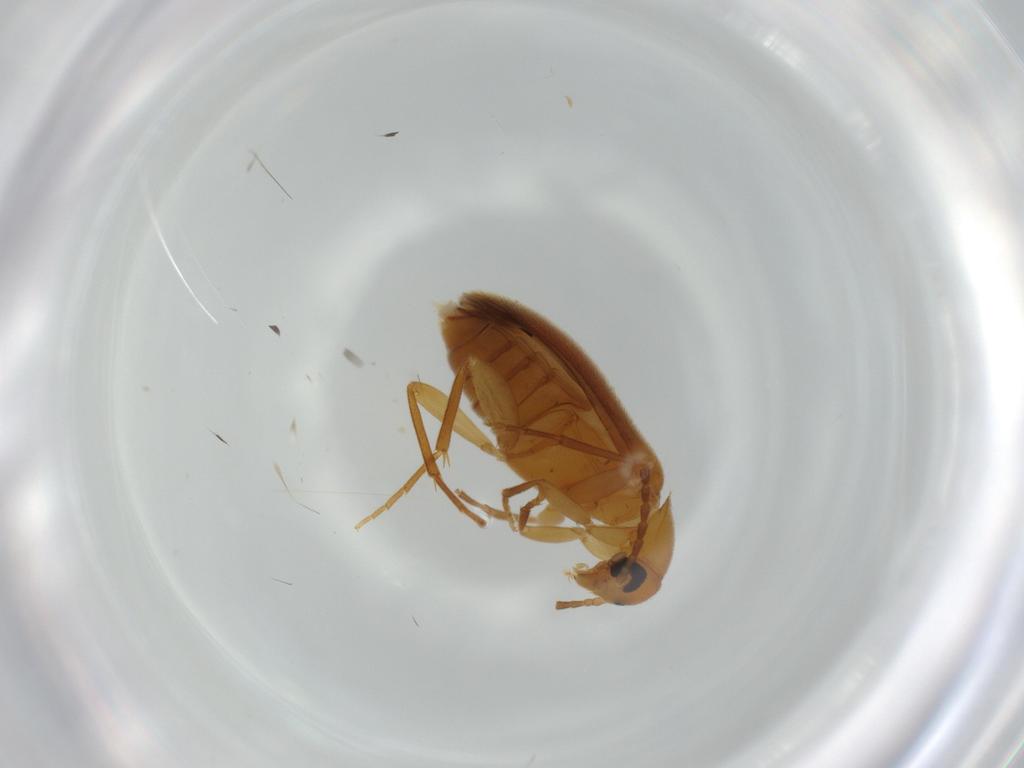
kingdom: Animalia
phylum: Arthropoda
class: Insecta
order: Coleoptera
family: Scraptiidae
